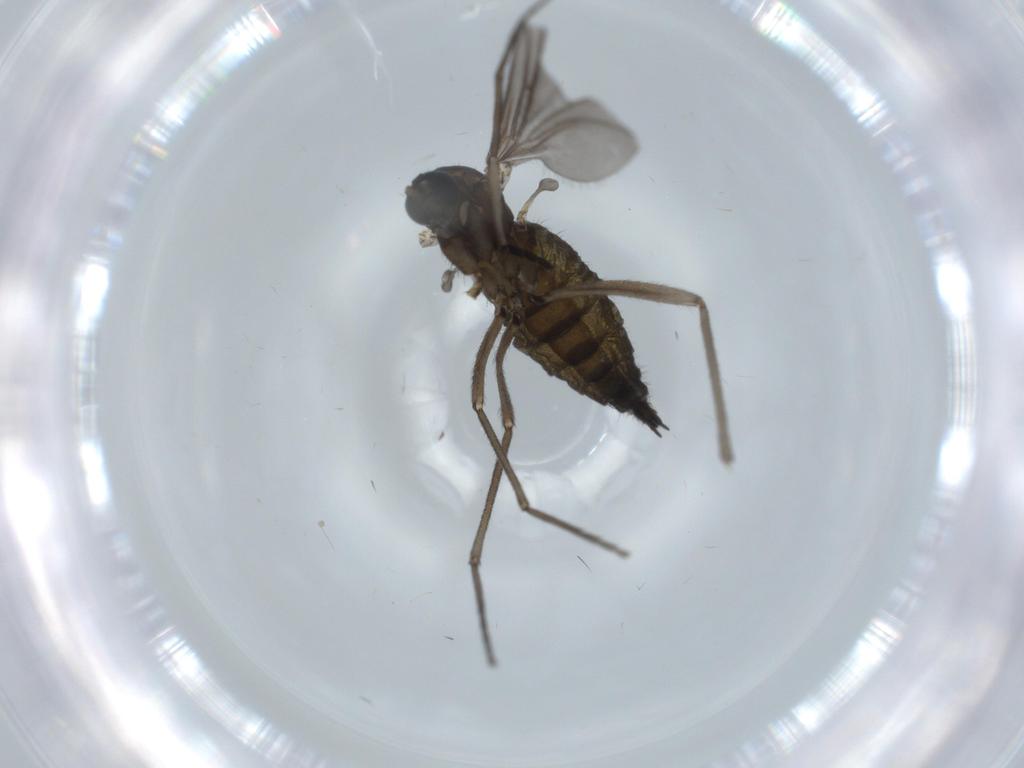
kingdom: Animalia
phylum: Arthropoda
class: Insecta
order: Diptera
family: Sciaridae
